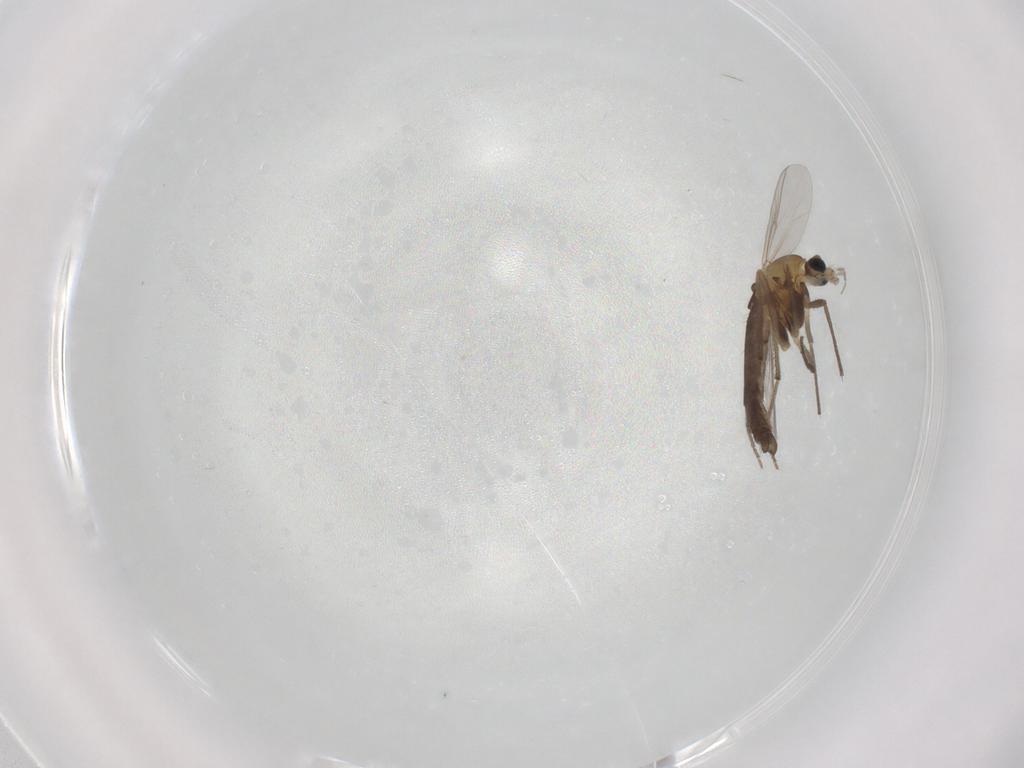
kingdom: Animalia
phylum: Arthropoda
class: Insecta
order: Diptera
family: Chironomidae
